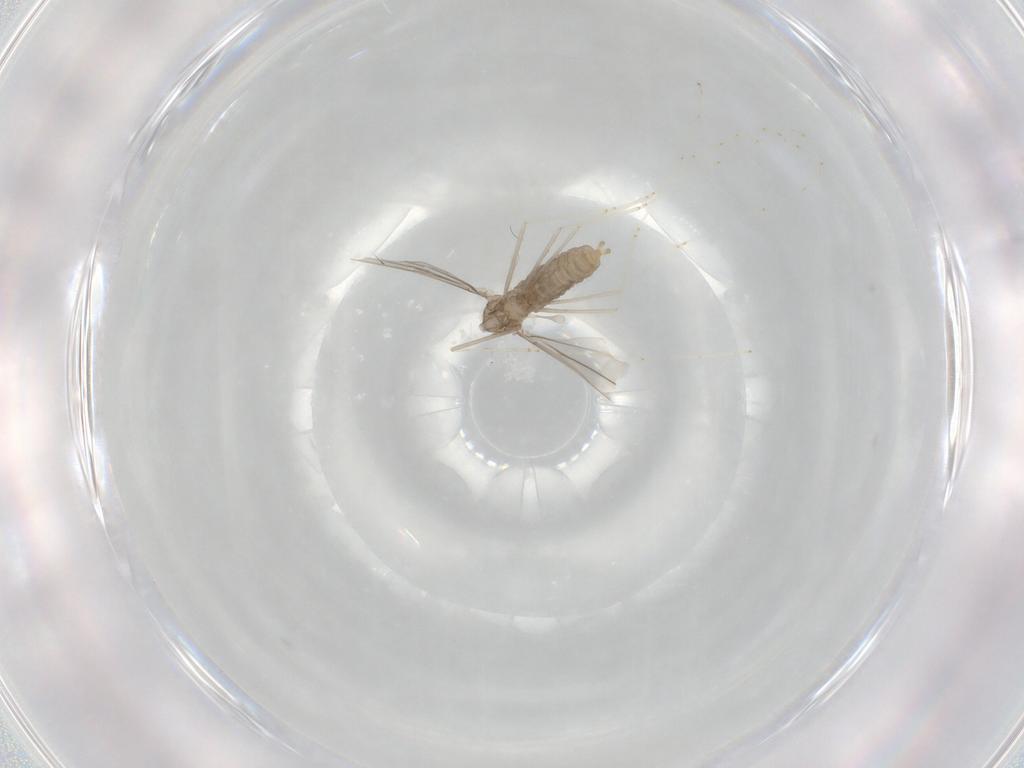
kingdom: Animalia
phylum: Arthropoda
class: Insecta
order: Diptera
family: Cecidomyiidae
